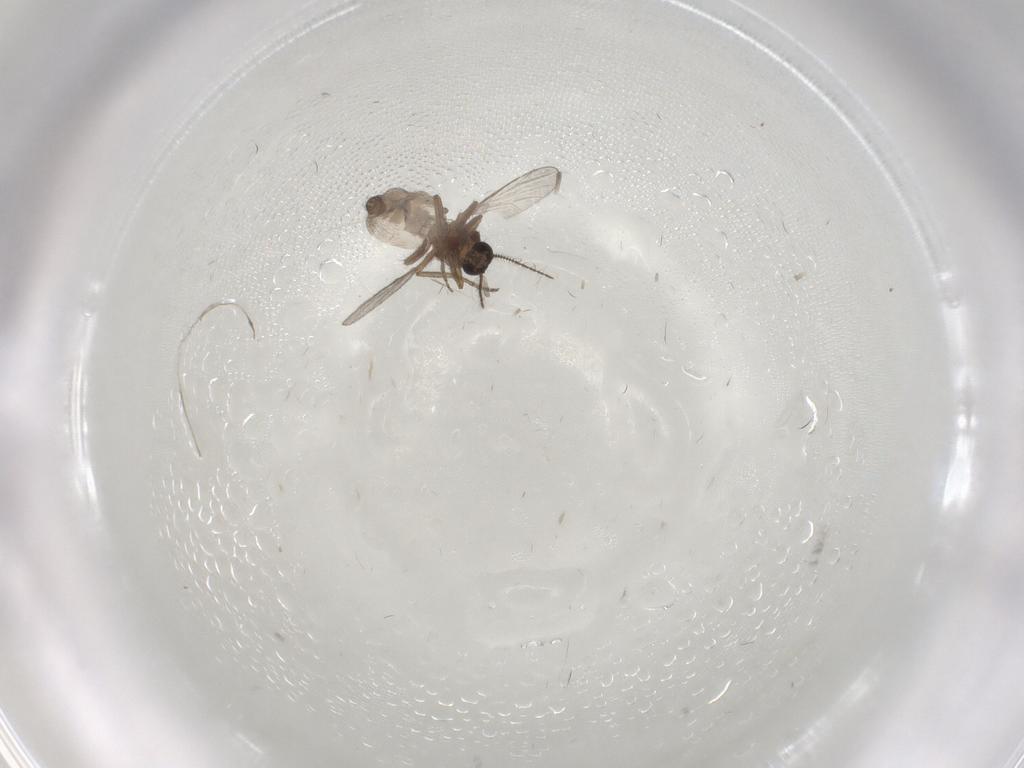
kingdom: Animalia
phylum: Arthropoda
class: Insecta
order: Diptera
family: Ceratopogonidae
